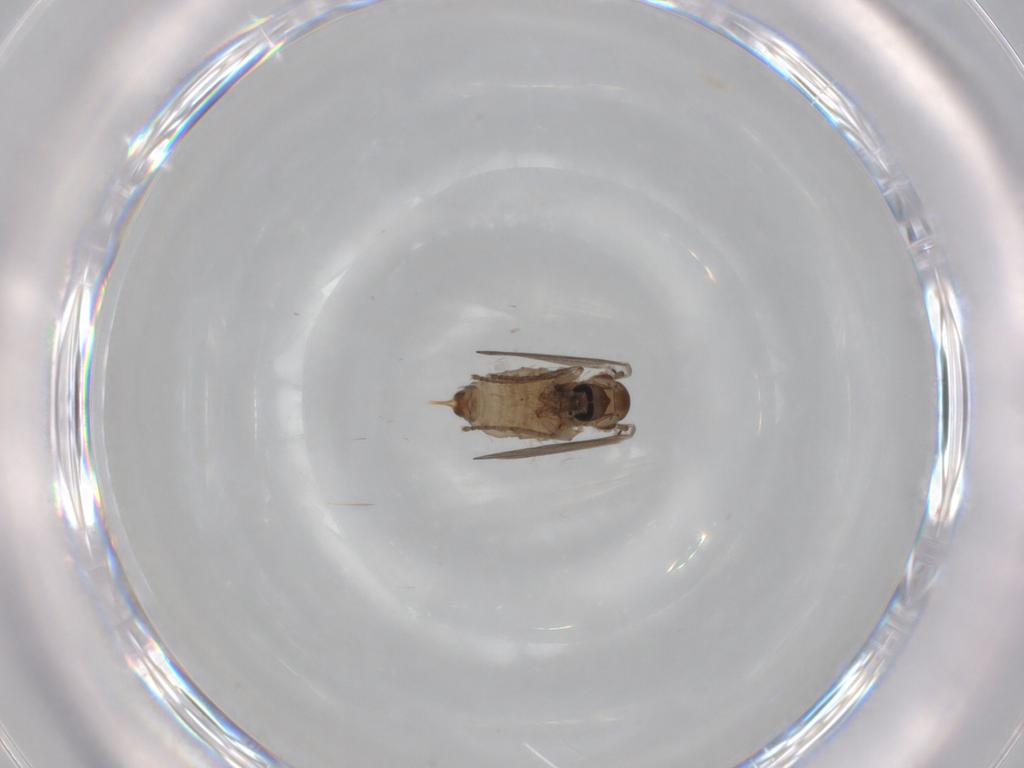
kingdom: Animalia
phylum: Arthropoda
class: Insecta
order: Diptera
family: Phoridae
